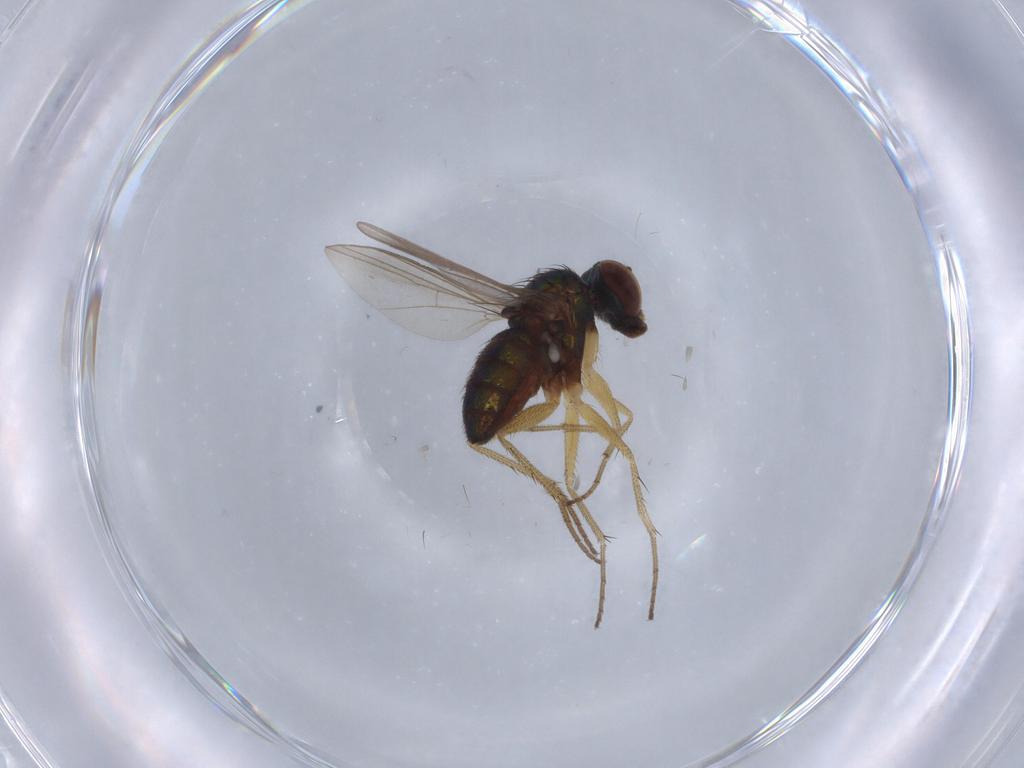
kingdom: Animalia
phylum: Arthropoda
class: Insecta
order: Diptera
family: Dolichopodidae
